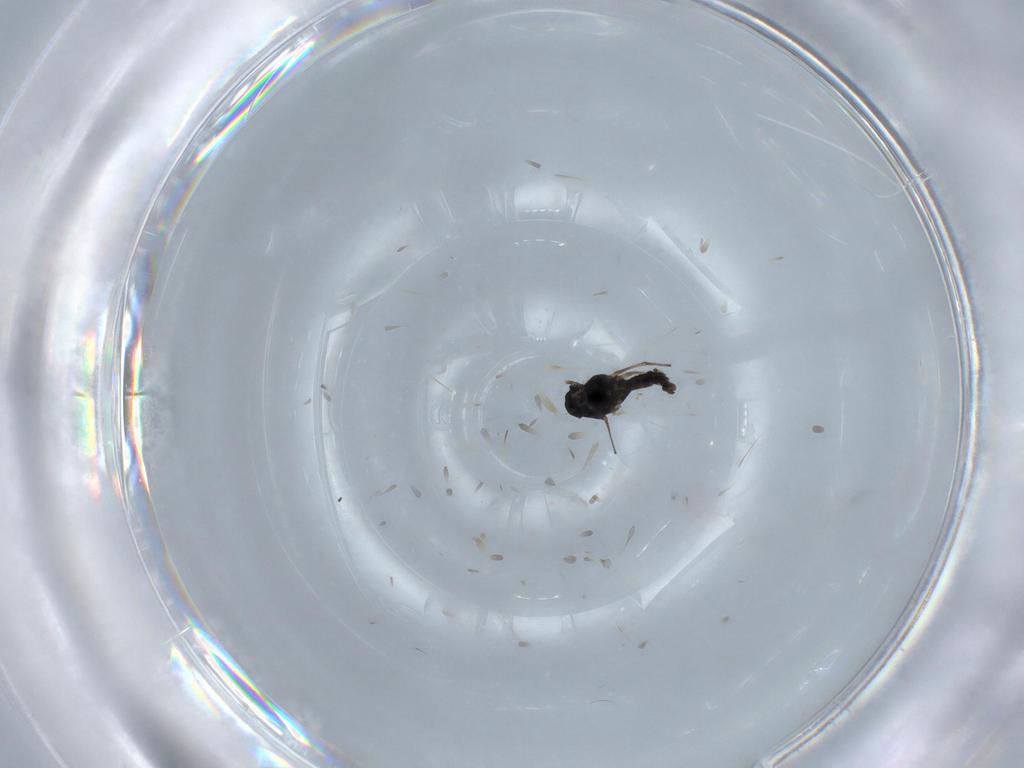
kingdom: Animalia
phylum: Arthropoda
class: Insecta
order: Diptera
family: Chironomidae
